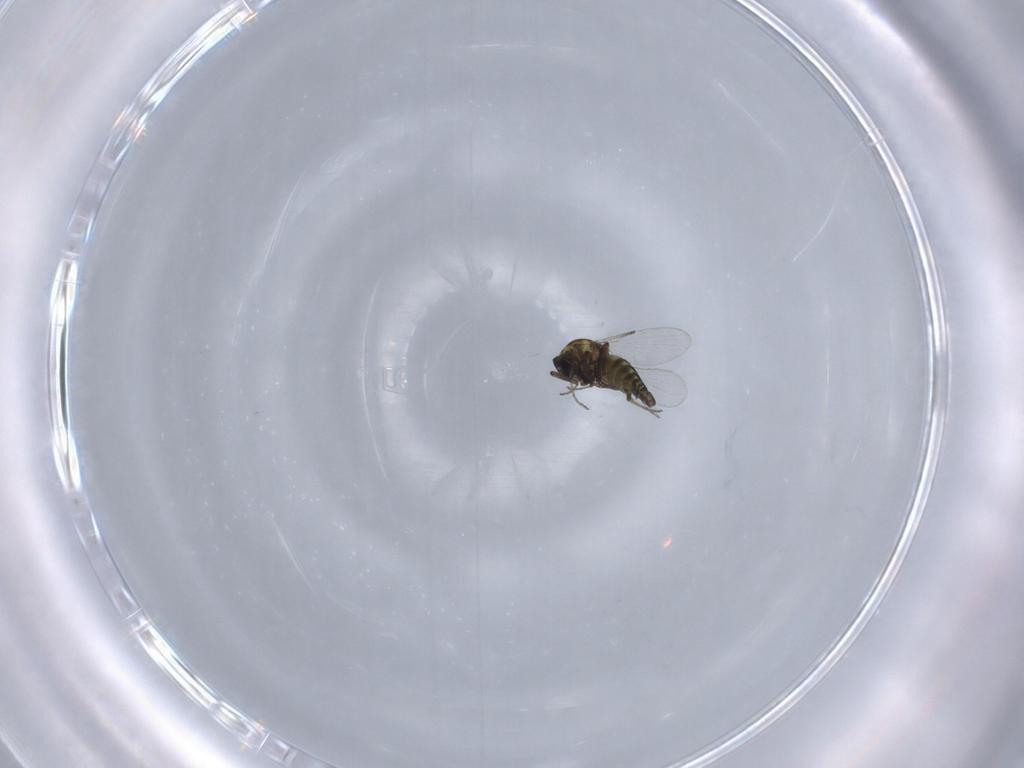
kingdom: Animalia
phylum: Arthropoda
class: Insecta
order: Diptera
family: Ceratopogonidae
